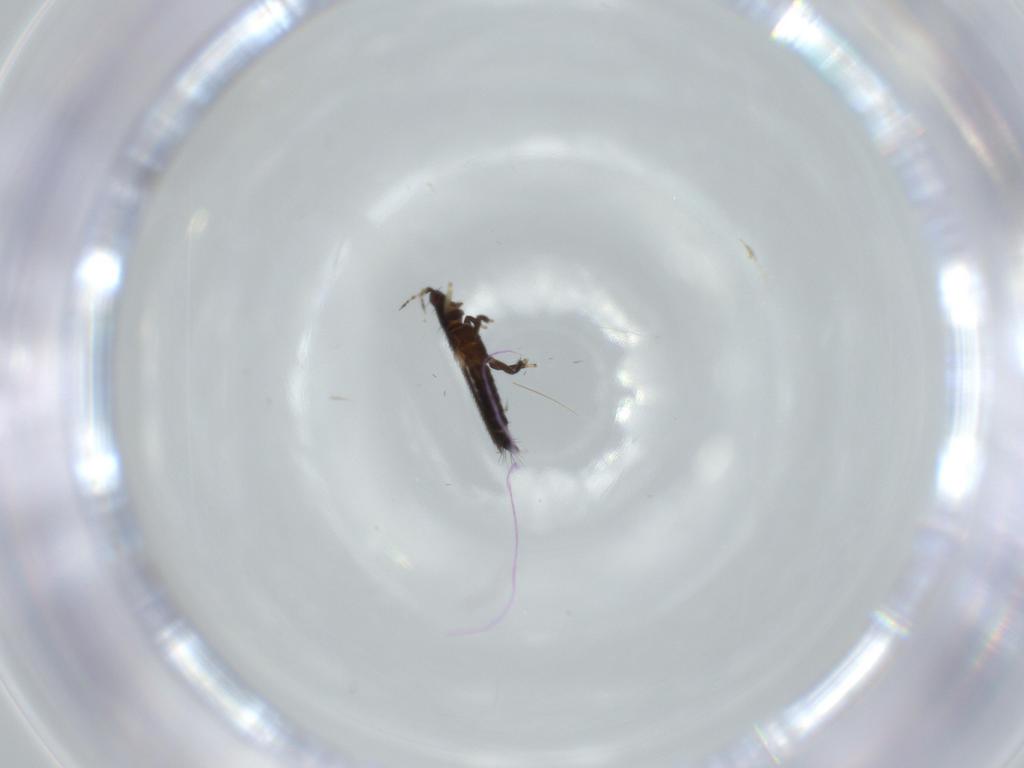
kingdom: Animalia
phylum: Arthropoda
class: Insecta
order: Thysanoptera
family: Thripidae
